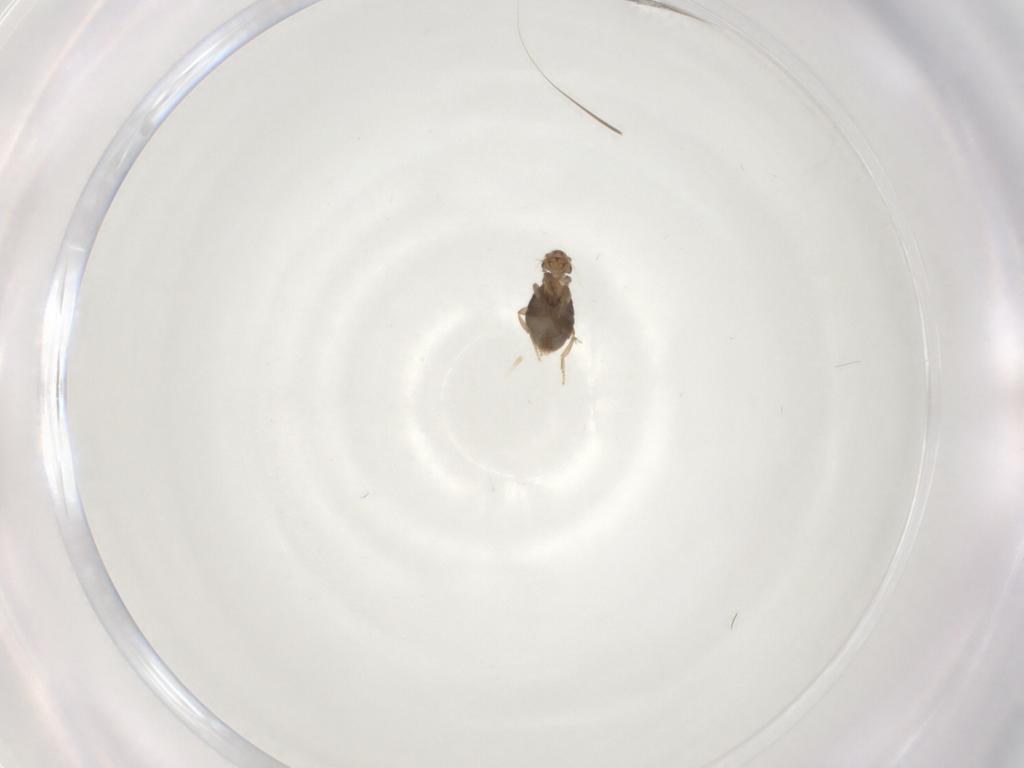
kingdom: Animalia
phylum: Arthropoda
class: Insecta
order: Diptera
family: Chironomidae
